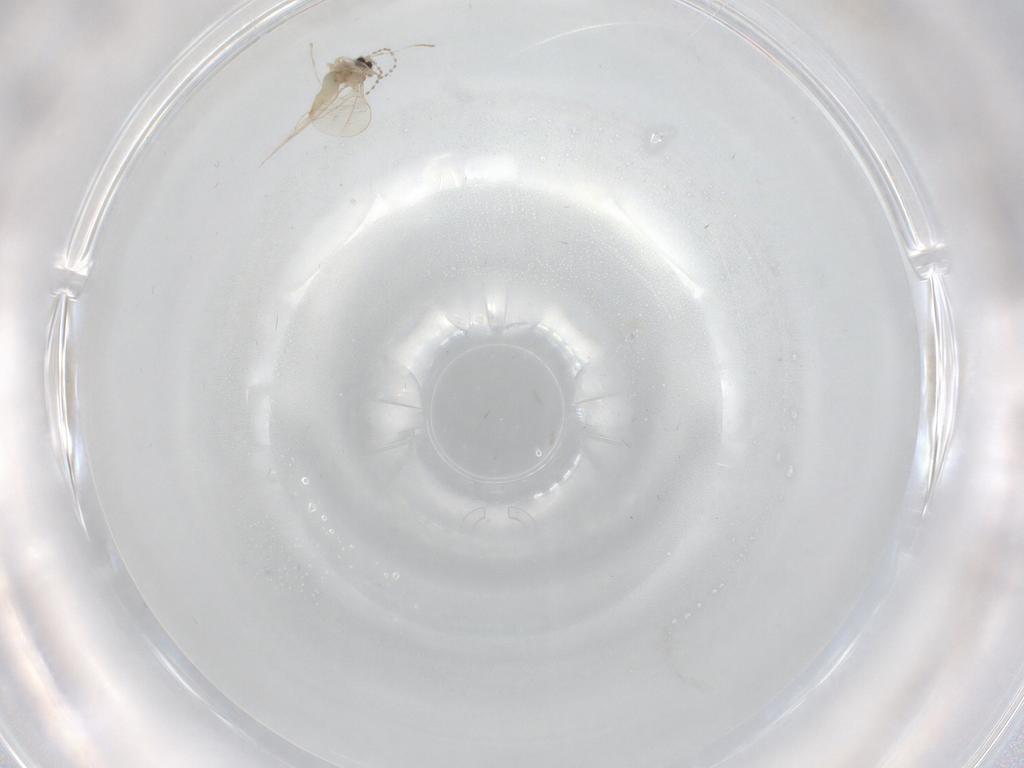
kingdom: Animalia
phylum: Arthropoda
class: Insecta
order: Diptera
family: Cecidomyiidae
